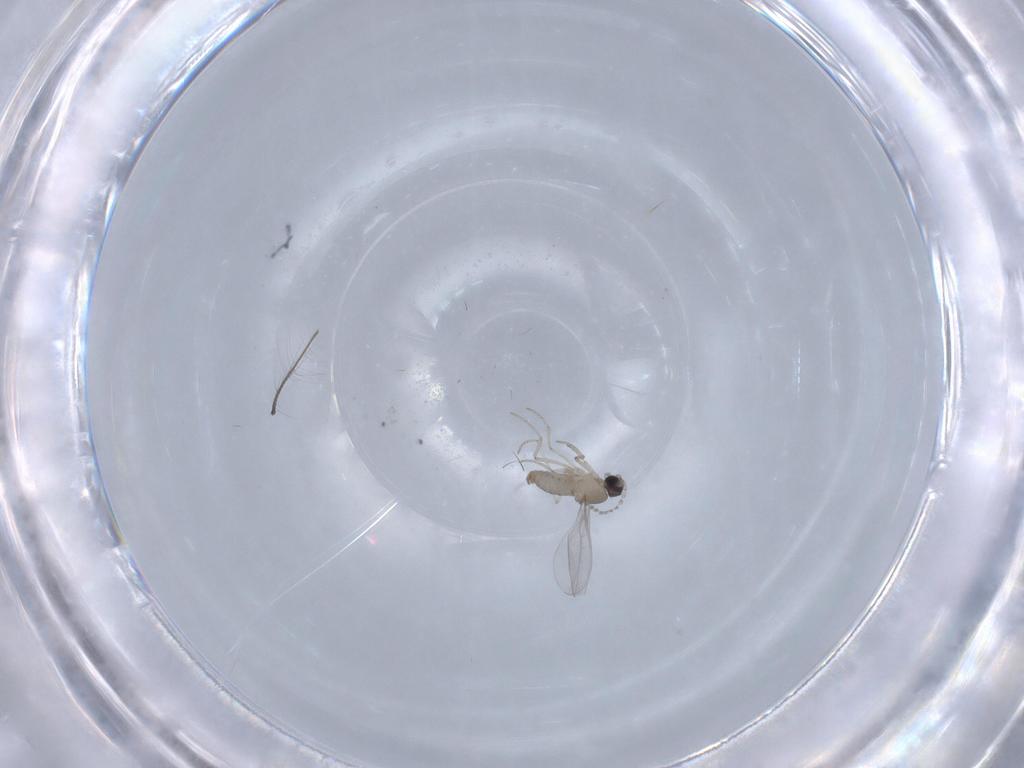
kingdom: Animalia
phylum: Arthropoda
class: Insecta
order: Diptera
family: Cecidomyiidae
